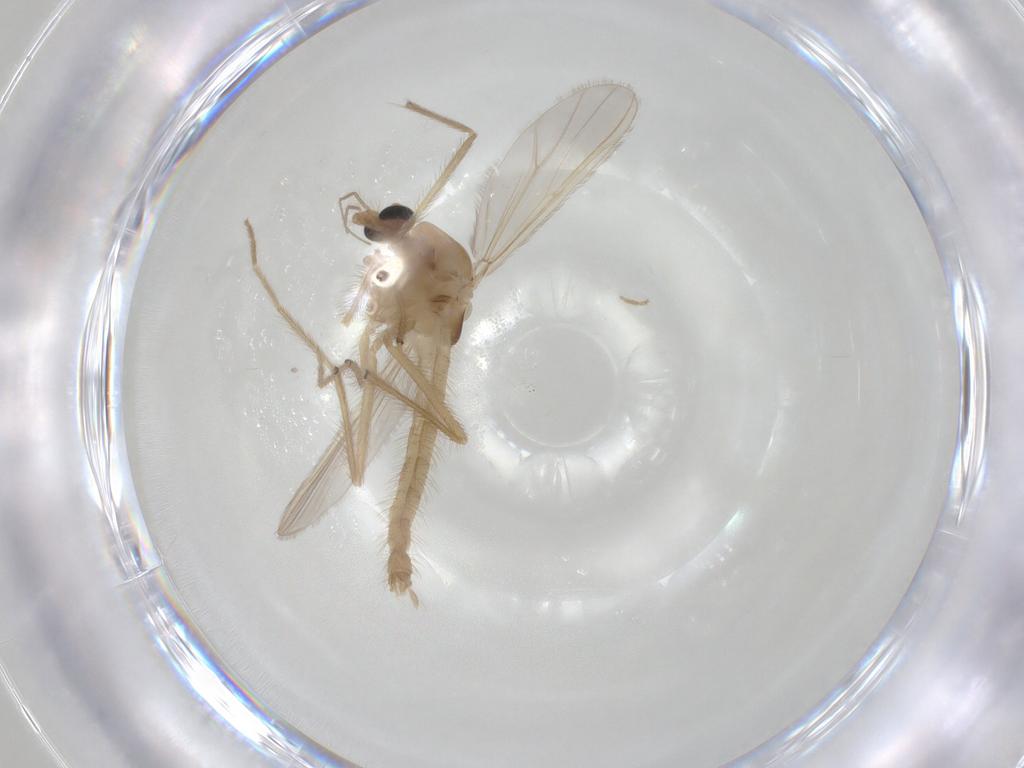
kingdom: Animalia
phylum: Arthropoda
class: Insecta
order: Diptera
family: Chironomidae
